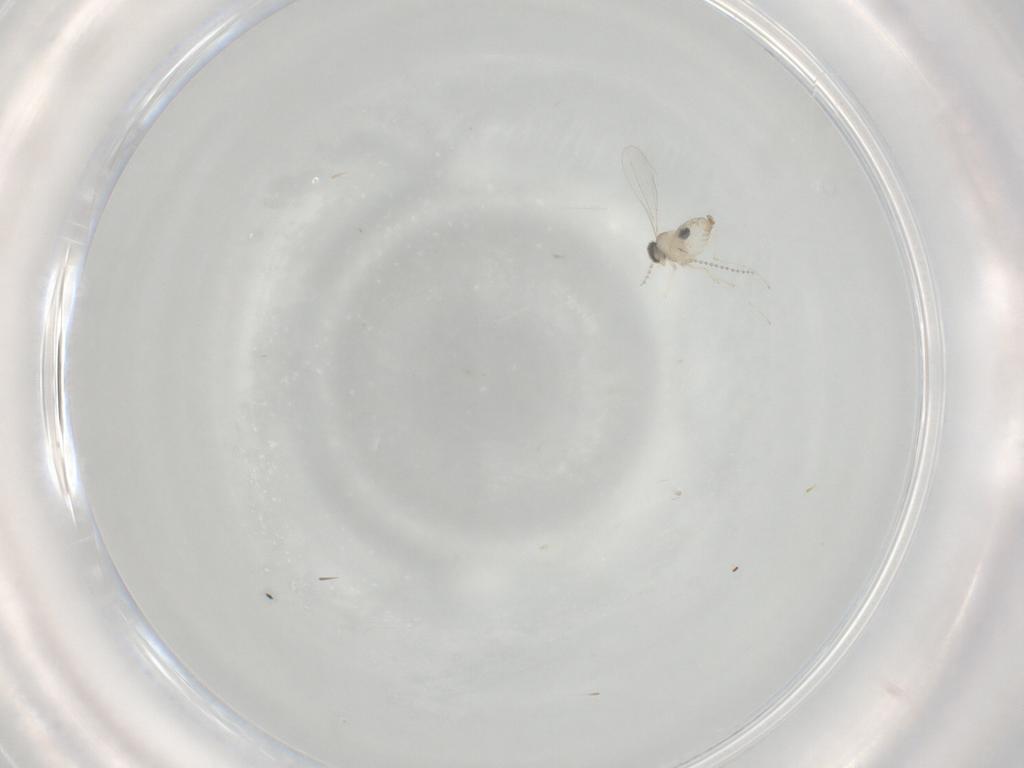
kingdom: Animalia
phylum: Arthropoda
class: Insecta
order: Diptera
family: Cecidomyiidae
